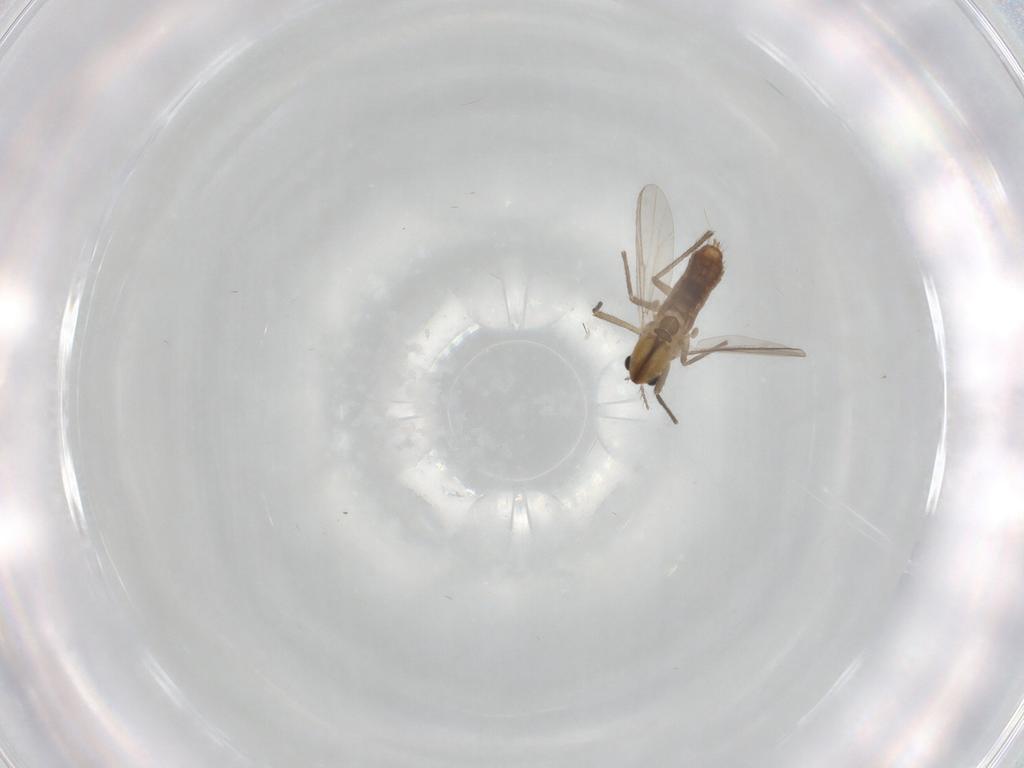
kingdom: Animalia
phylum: Arthropoda
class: Insecta
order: Diptera
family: Chironomidae
